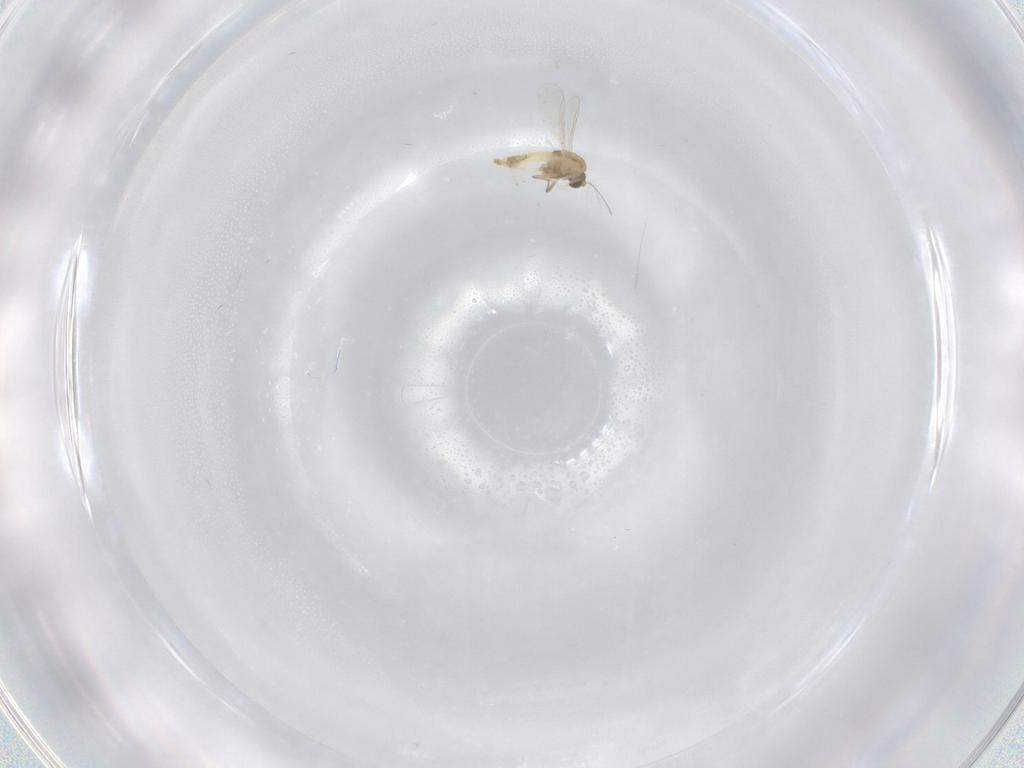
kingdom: Animalia
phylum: Arthropoda
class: Insecta
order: Diptera
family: Chironomidae
